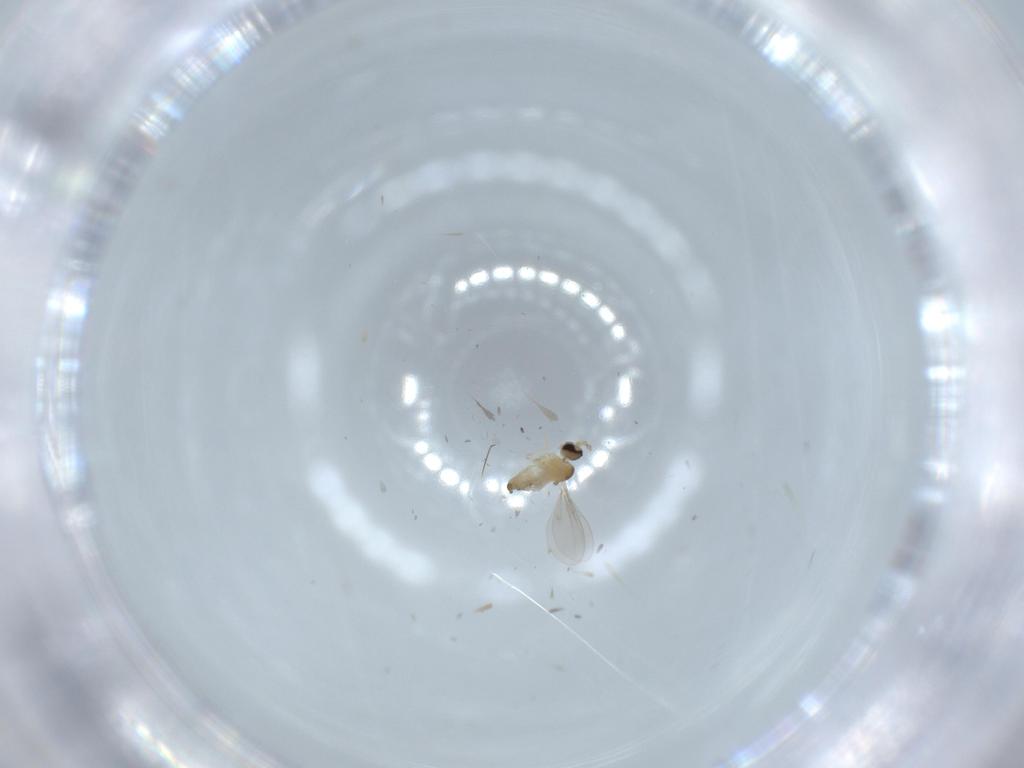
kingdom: Animalia
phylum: Arthropoda
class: Insecta
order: Diptera
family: Cecidomyiidae
